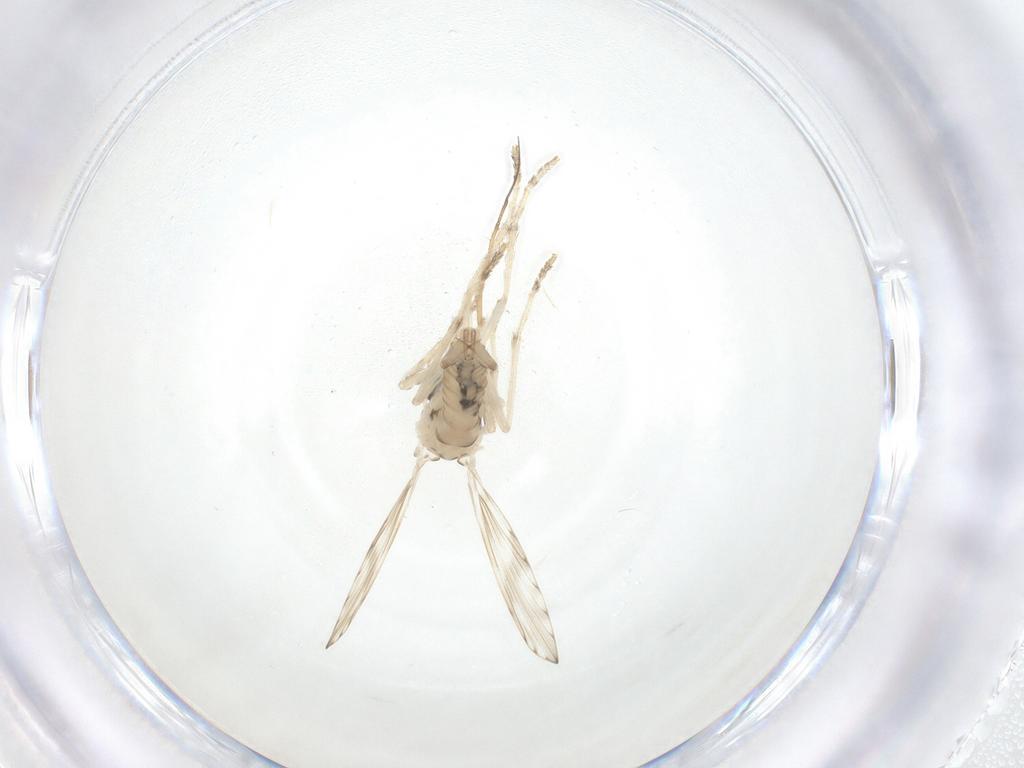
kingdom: Animalia
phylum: Arthropoda
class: Insecta
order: Diptera
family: Psychodidae
